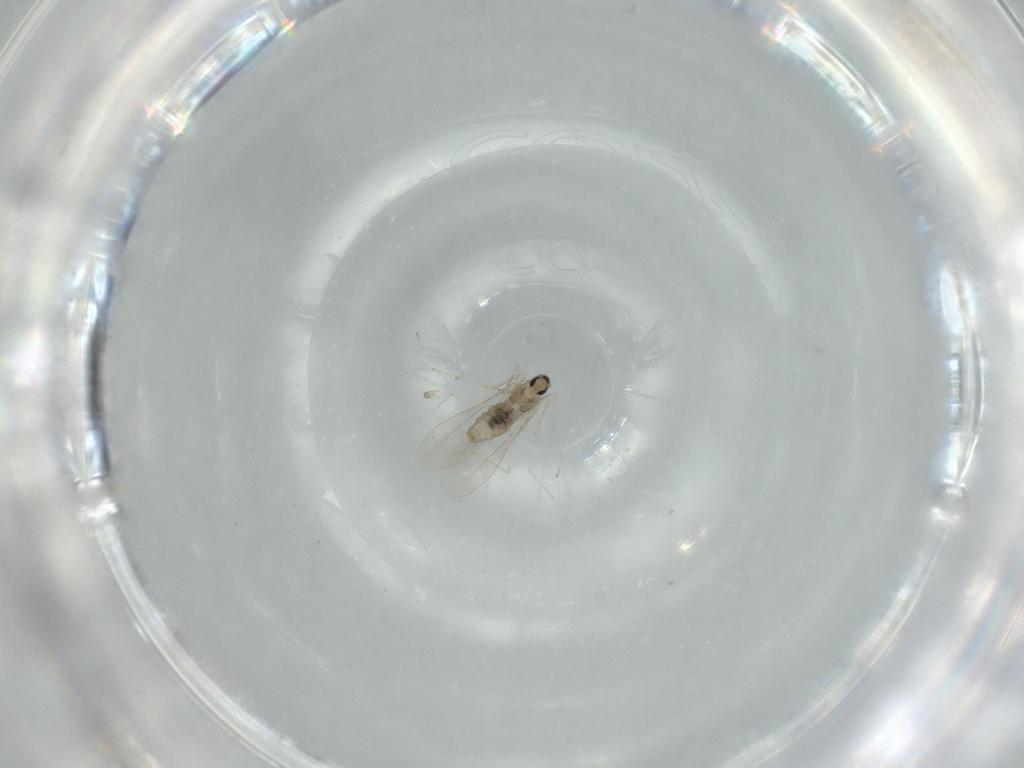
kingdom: Animalia
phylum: Arthropoda
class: Insecta
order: Diptera
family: Cecidomyiidae
